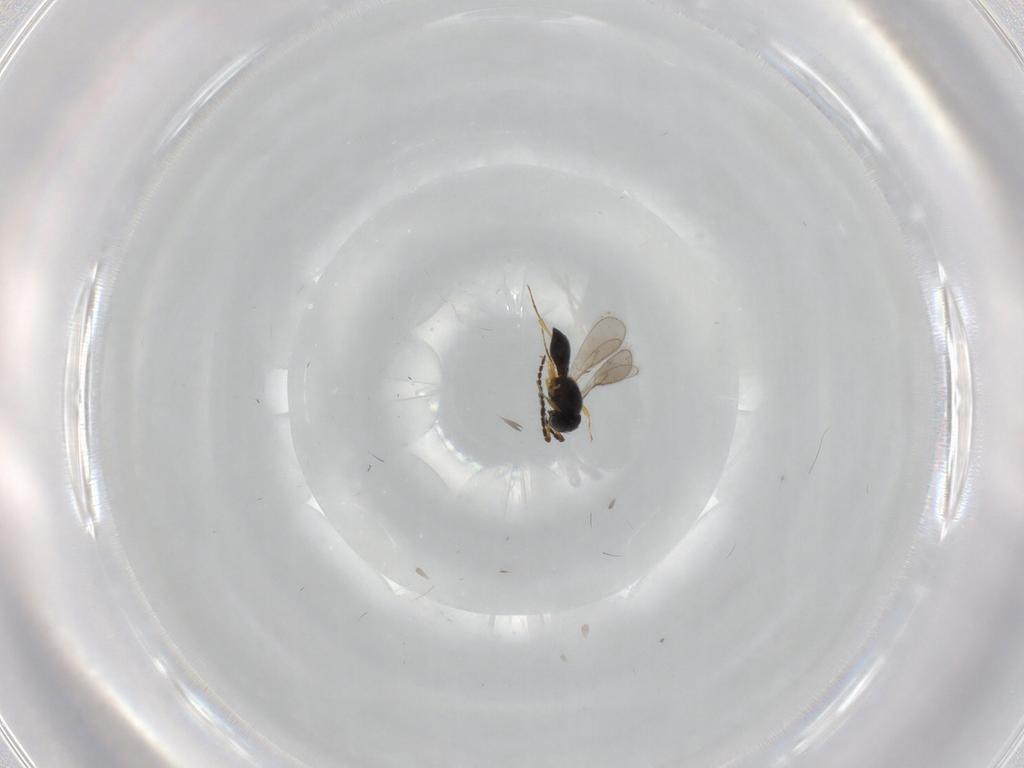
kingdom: Animalia
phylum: Arthropoda
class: Insecta
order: Hymenoptera
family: Scelionidae
